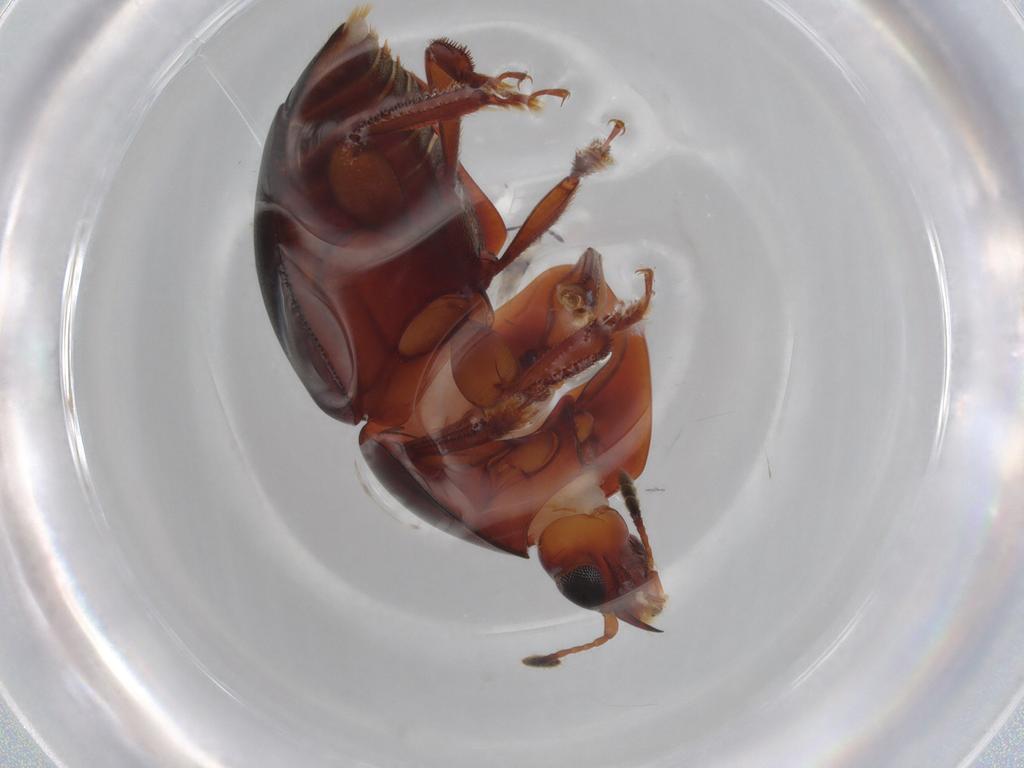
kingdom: Animalia
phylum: Arthropoda
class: Insecta
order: Coleoptera
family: Nitidulidae
